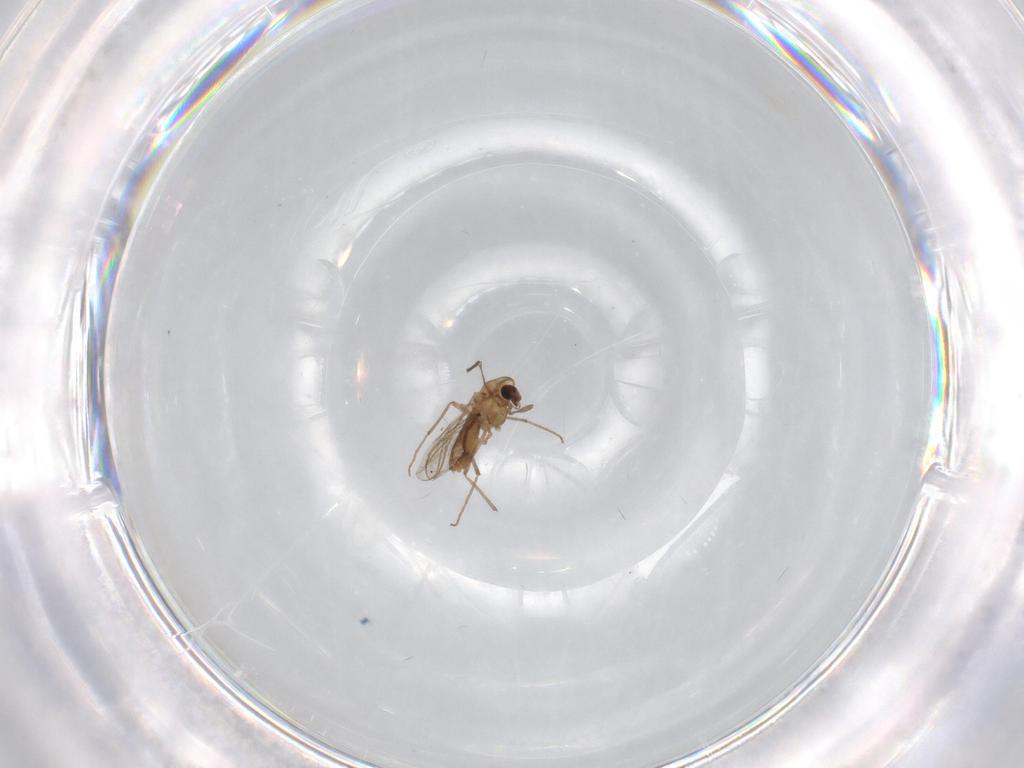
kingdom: Animalia
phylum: Arthropoda
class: Insecta
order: Diptera
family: Chironomidae
